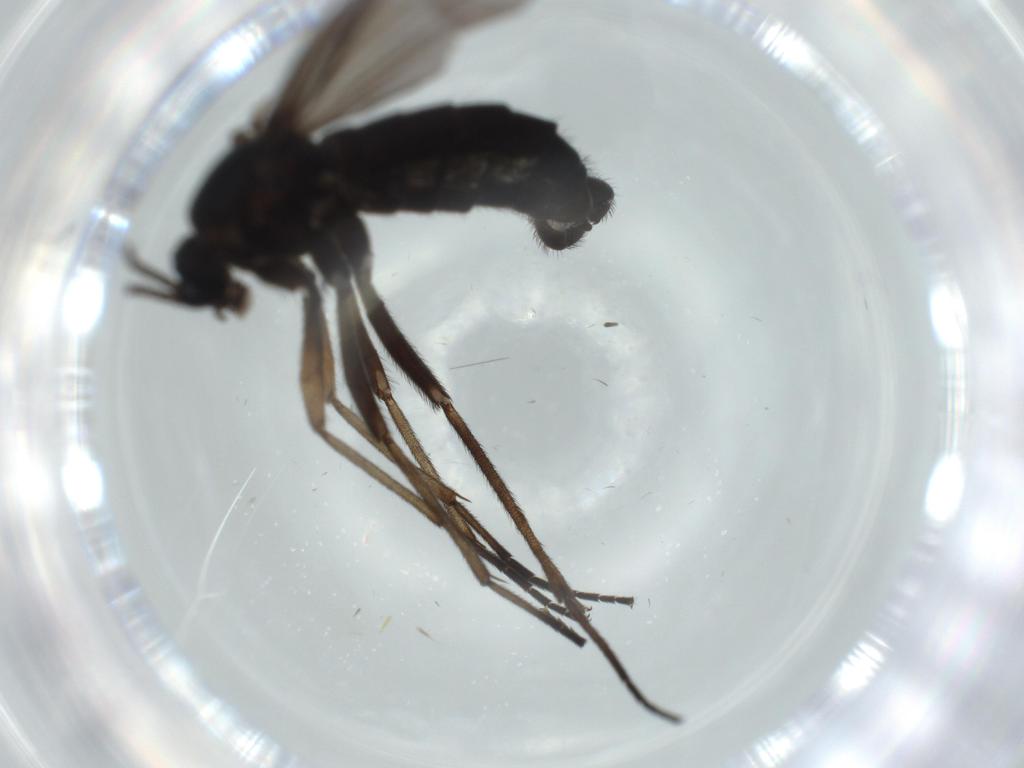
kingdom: Animalia
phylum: Arthropoda
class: Insecta
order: Diptera
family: Sciaridae
